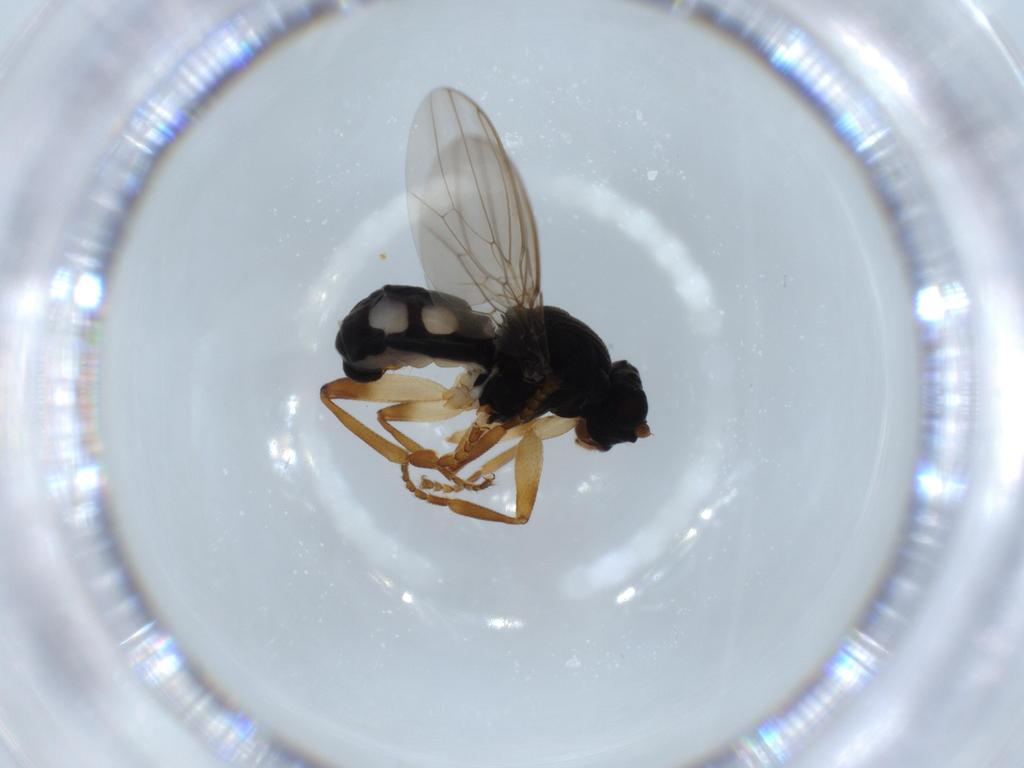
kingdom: Animalia
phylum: Arthropoda
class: Insecta
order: Diptera
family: Sphaeroceridae
